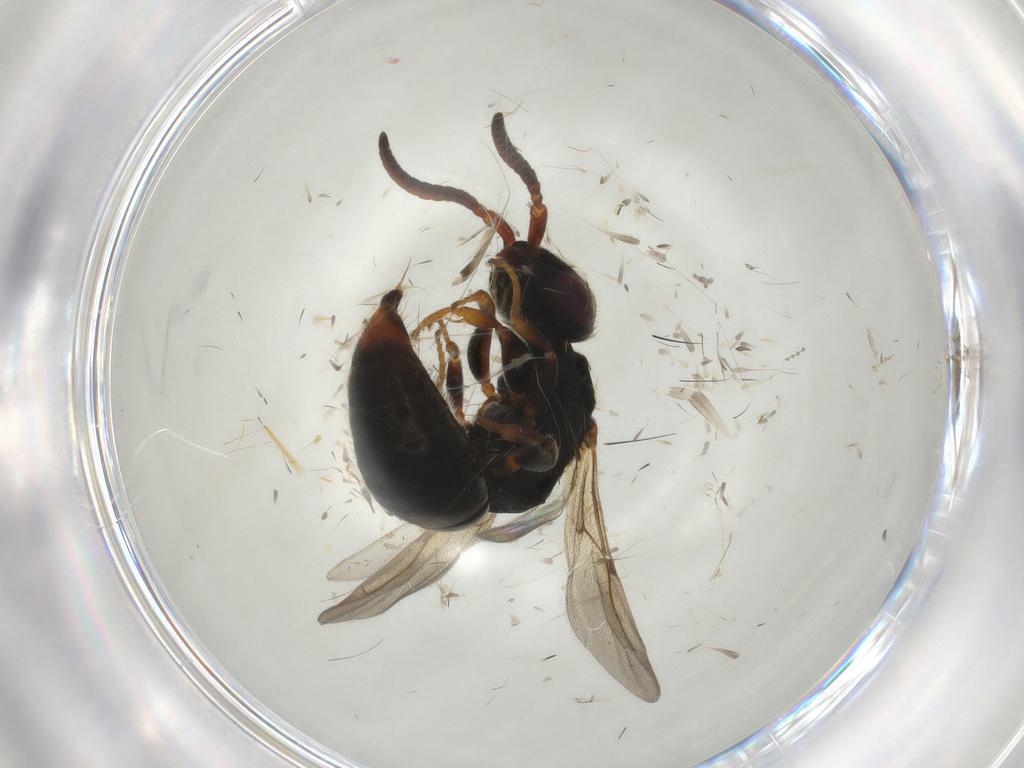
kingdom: Animalia
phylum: Arthropoda
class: Insecta
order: Hymenoptera
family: Bethylidae
